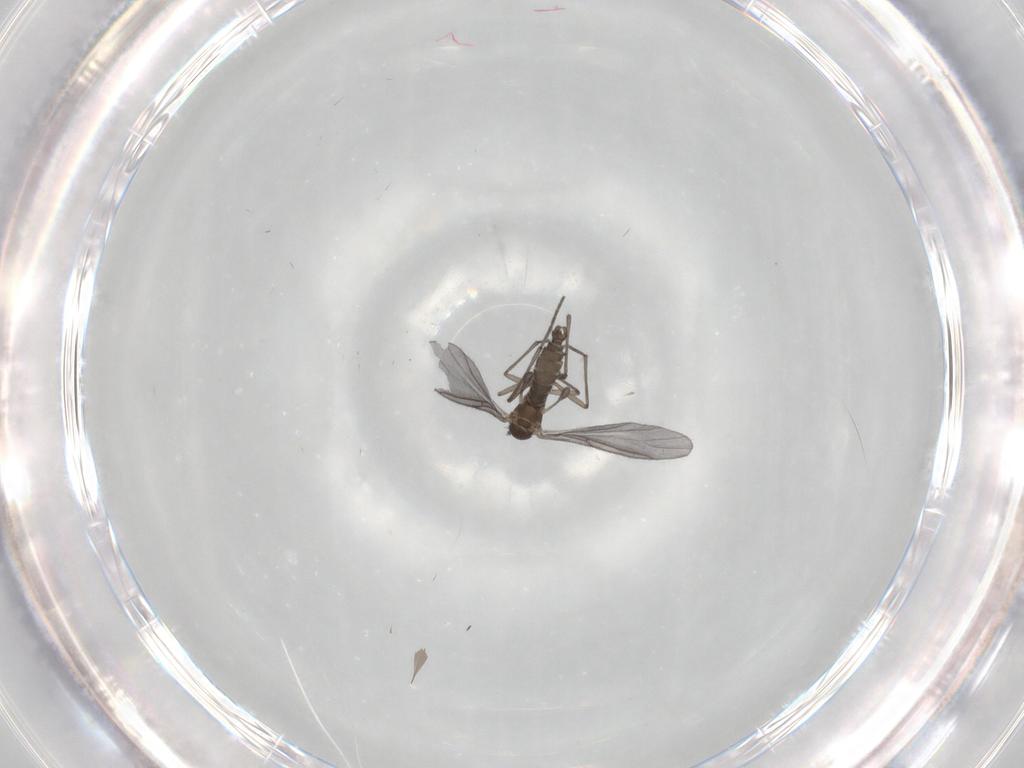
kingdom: Animalia
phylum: Arthropoda
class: Insecta
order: Diptera
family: Sciaridae
